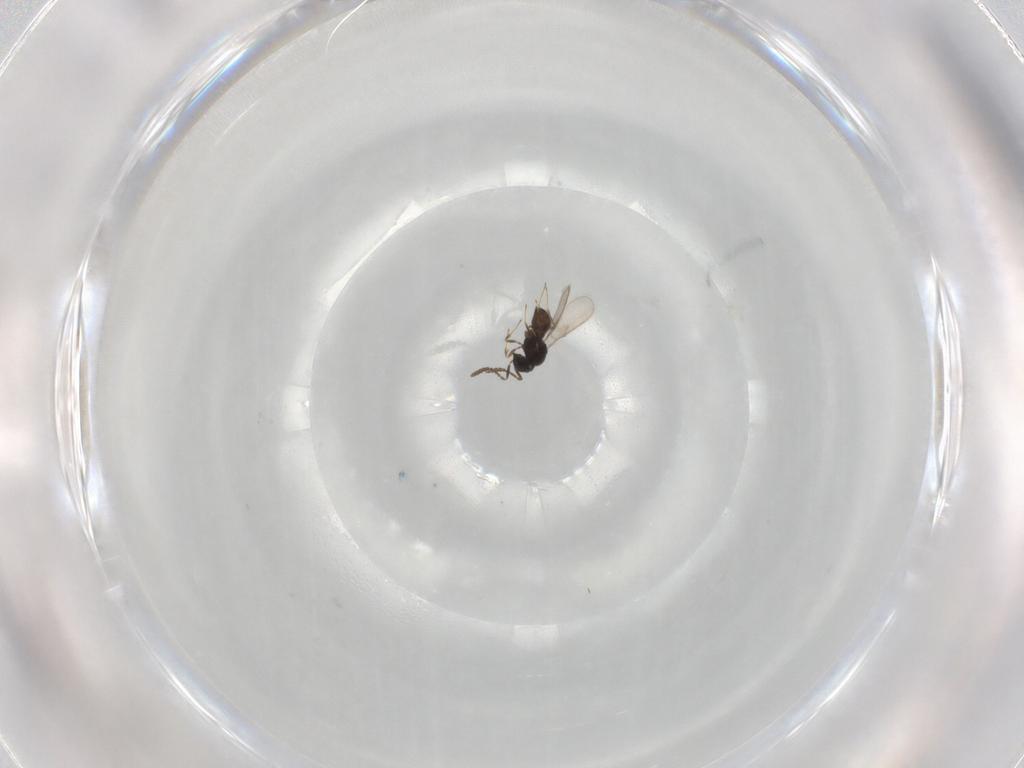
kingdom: Animalia
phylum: Arthropoda
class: Insecta
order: Hymenoptera
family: Scelionidae
